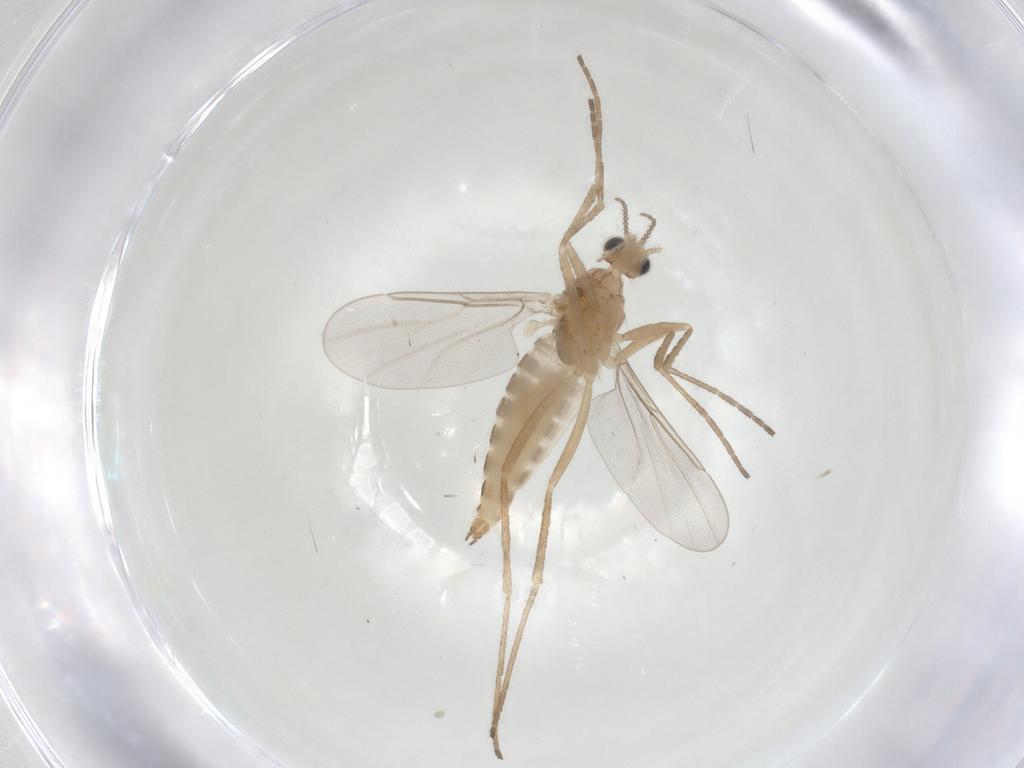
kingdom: Animalia
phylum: Arthropoda
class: Insecta
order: Diptera
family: Cecidomyiidae
